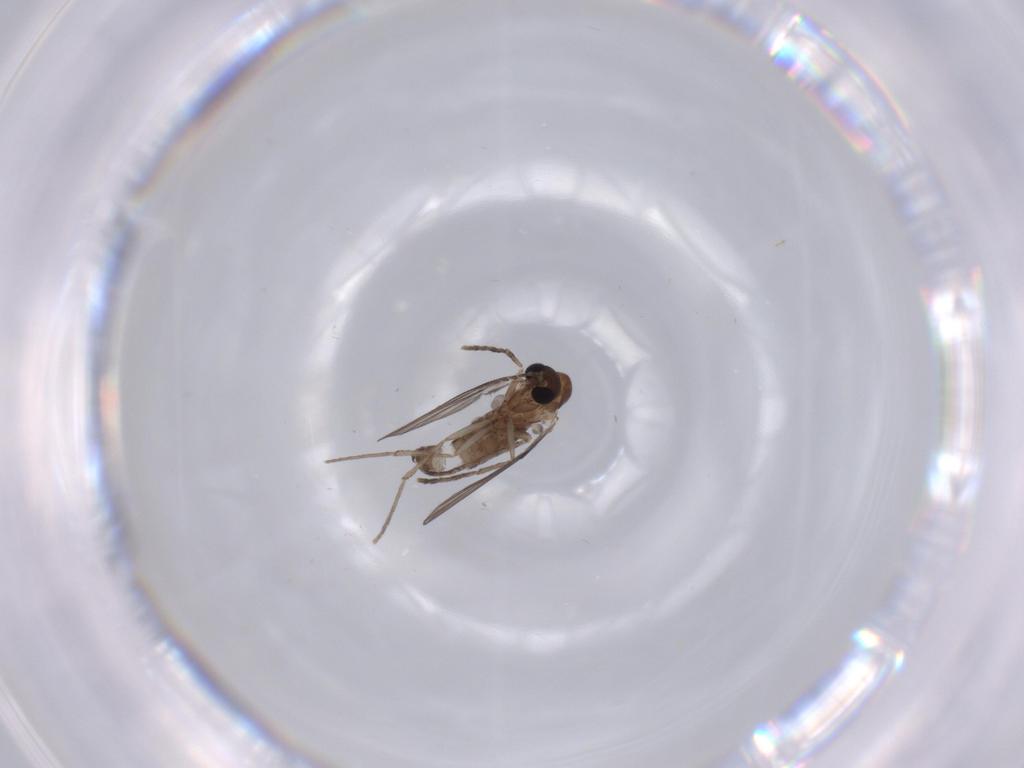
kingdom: Animalia
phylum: Arthropoda
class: Insecta
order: Diptera
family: Psychodidae
